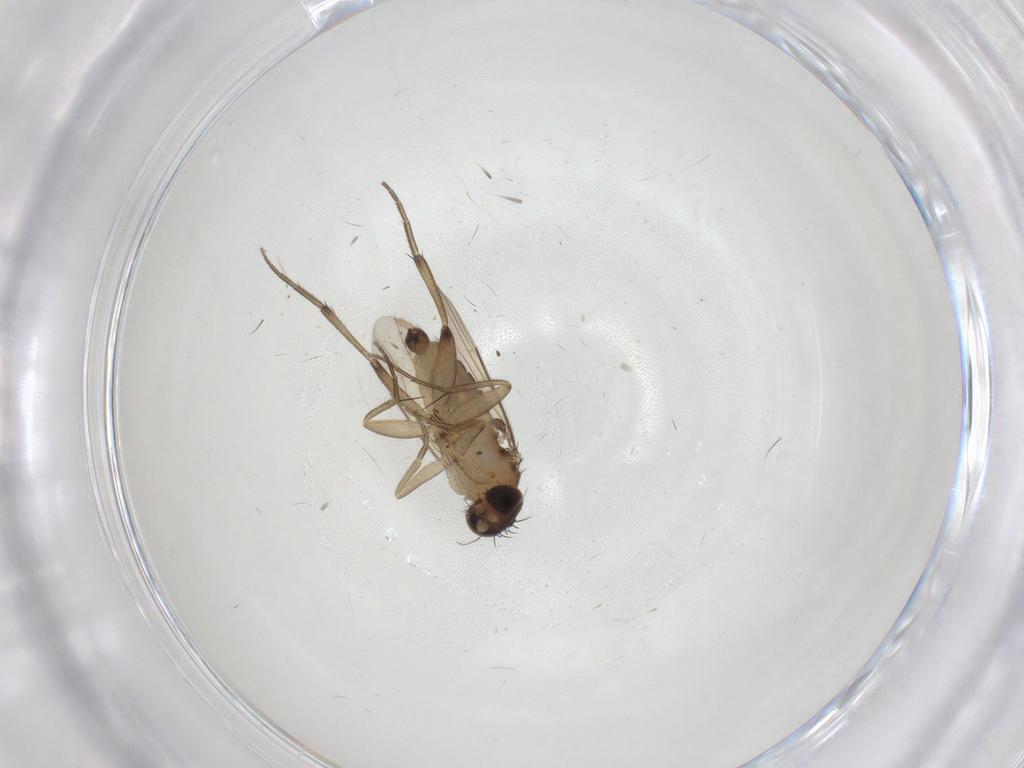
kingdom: Animalia
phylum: Arthropoda
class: Insecta
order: Diptera
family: Phoridae
